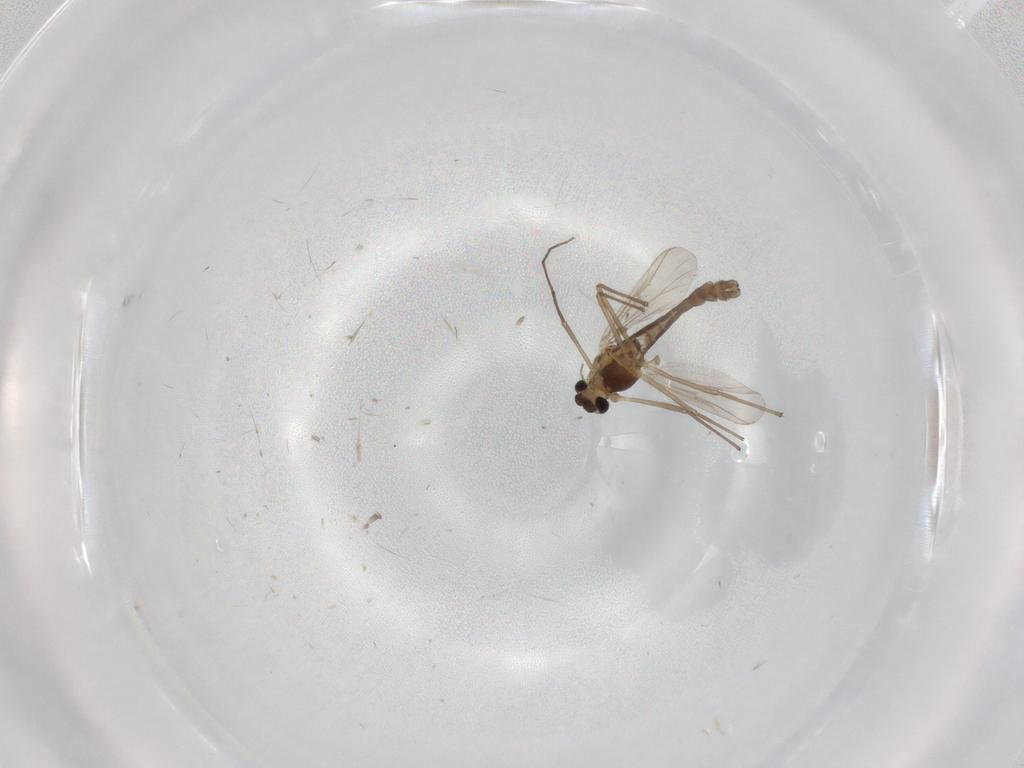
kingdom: Animalia
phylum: Arthropoda
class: Insecta
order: Diptera
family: Chironomidae
